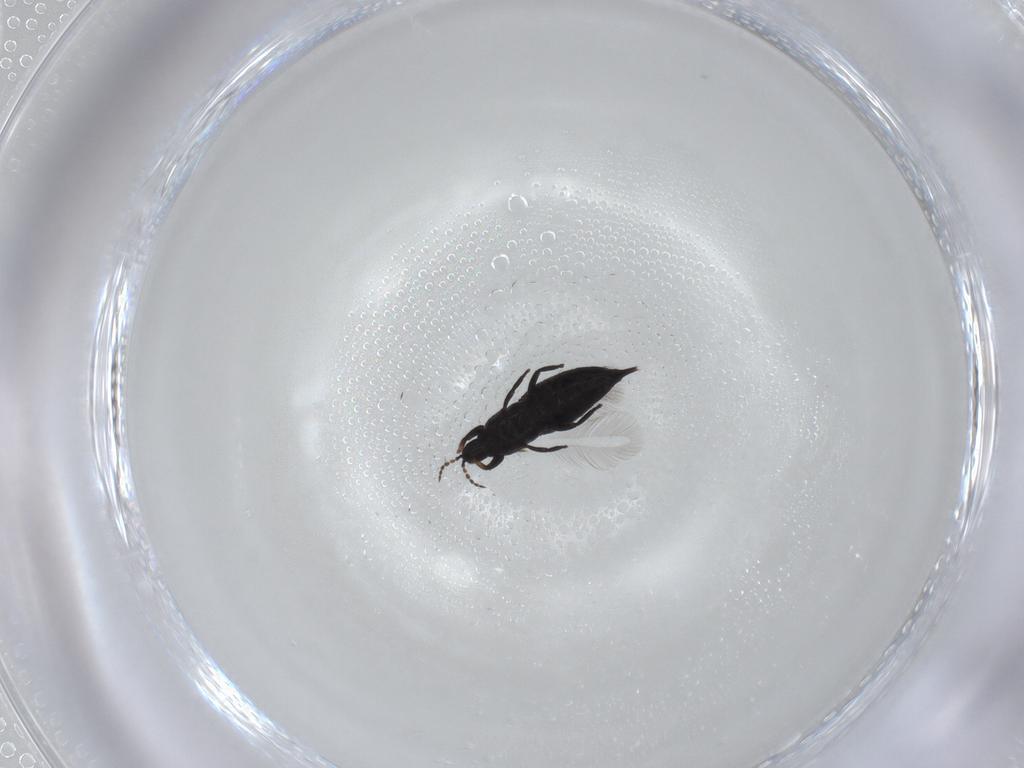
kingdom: Animalia
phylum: Arthropoda
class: Insecta
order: Thysanoptera
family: Phlaeothripidae
